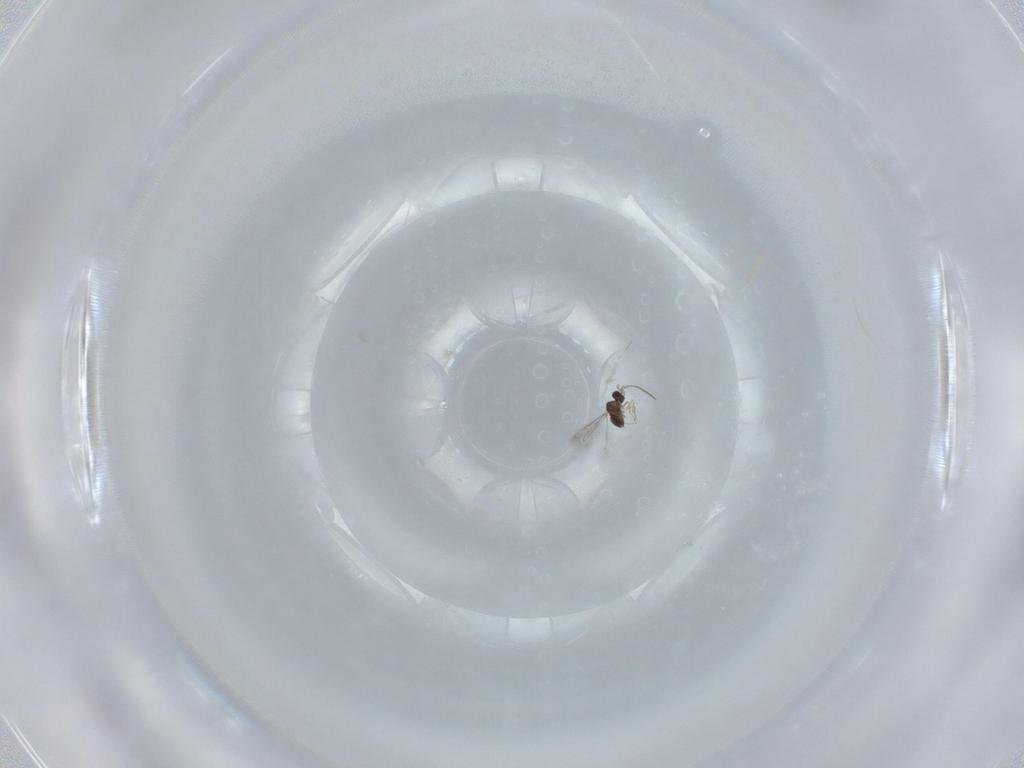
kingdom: Animalia
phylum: Arthropoda
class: Insecta
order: Hymenoptera
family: Mymaridae
